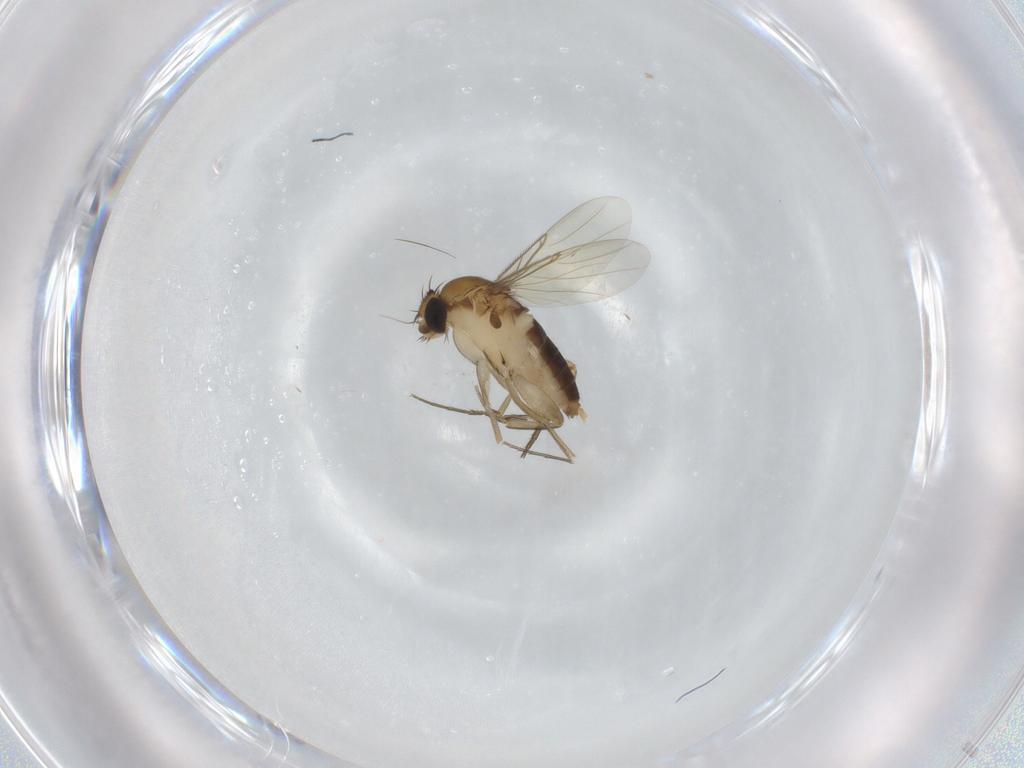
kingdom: Animalia
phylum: Arthropoda
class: Insecta
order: Diptera
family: Phoridae
